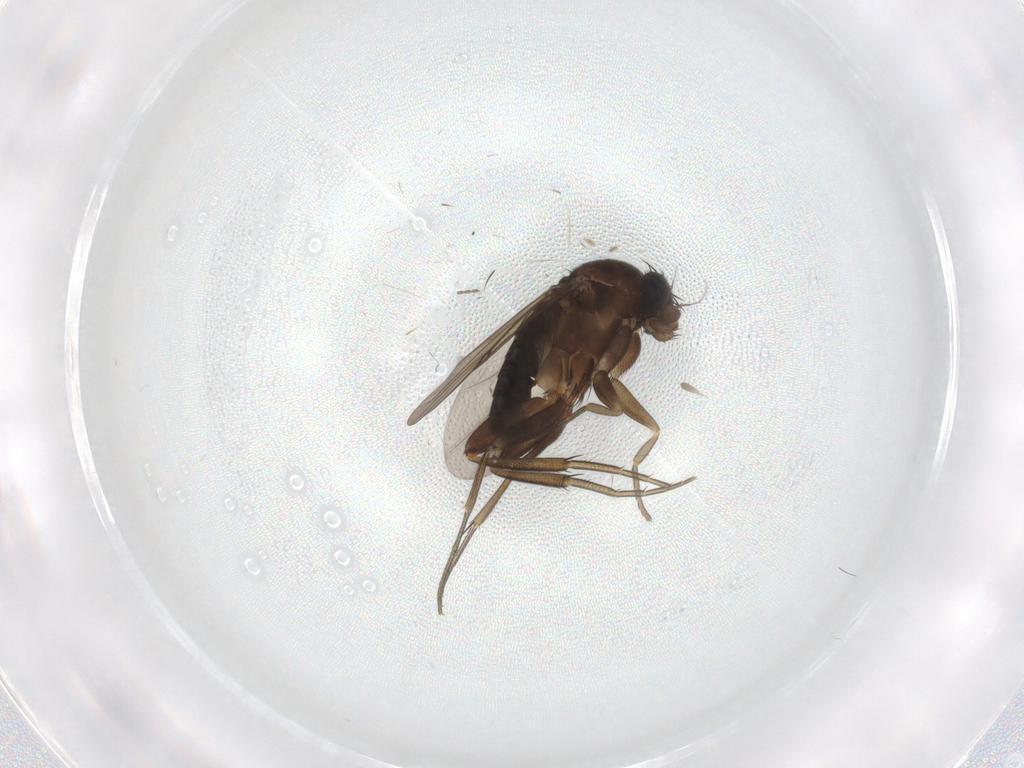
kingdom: Animalia
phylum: Arthropoda
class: Insecta
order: Diptera
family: Phoridae
